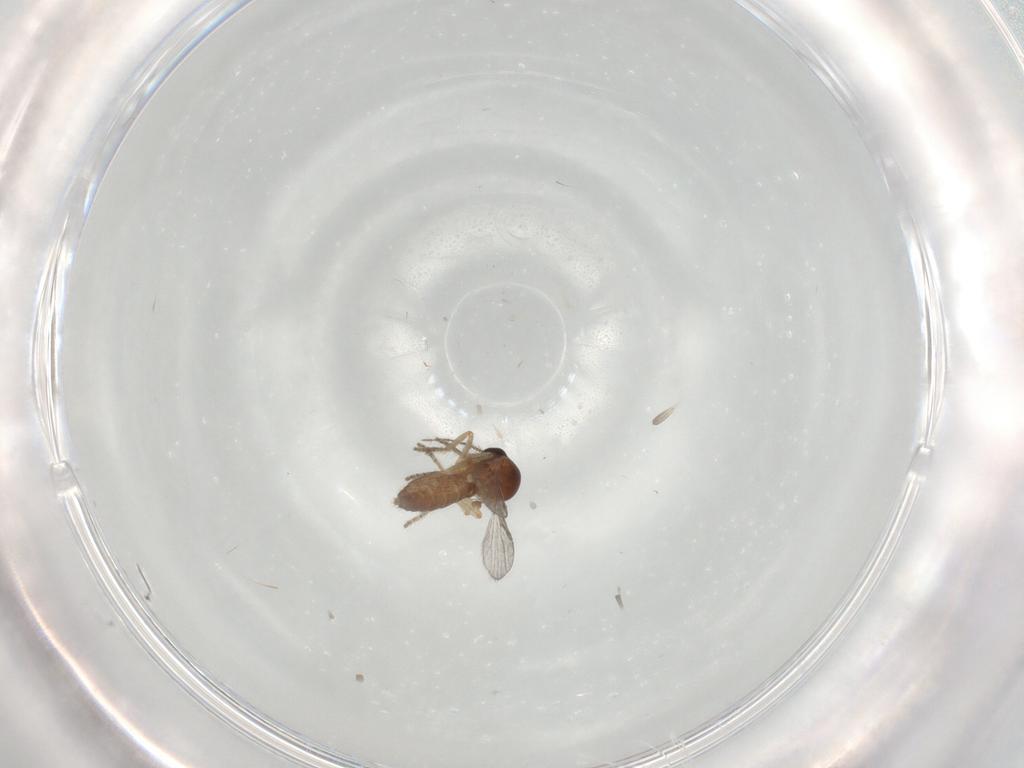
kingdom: Animalia
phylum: Arthropoda
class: Insecta
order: Diptera
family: Ceratopogonidae
